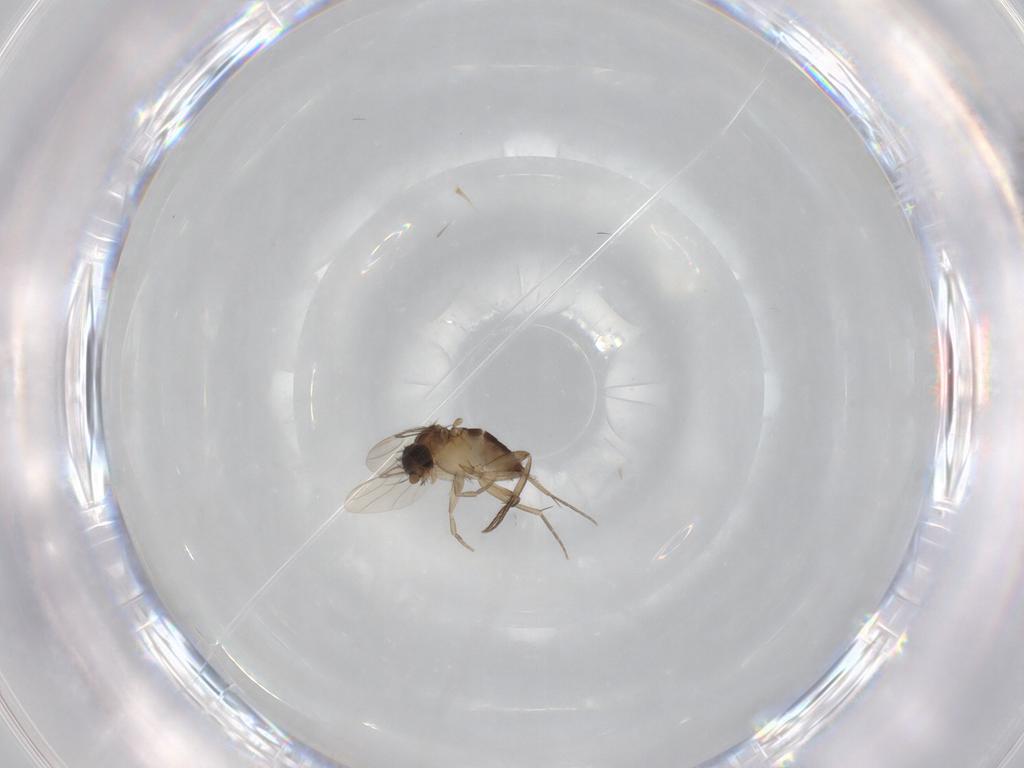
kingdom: Animalia
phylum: Arthropoda
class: Insecta
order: Diptera
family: Phoridae
